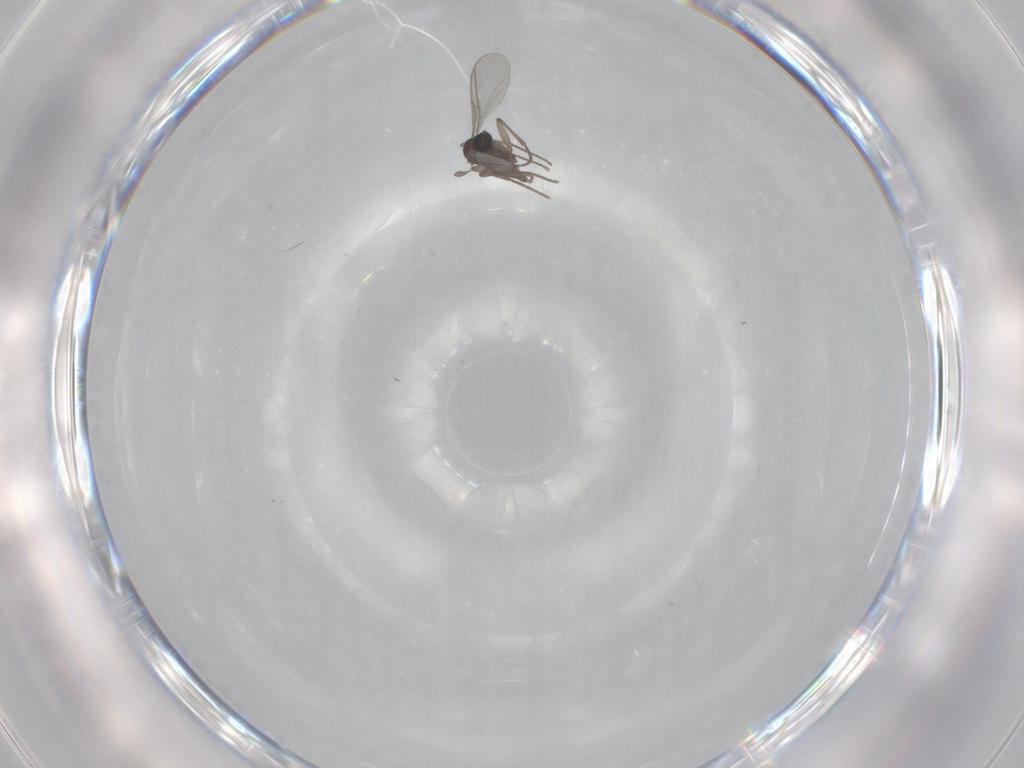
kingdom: Animalia
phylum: Arthropoda
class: Insecta
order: Diptera
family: Sciaridae
